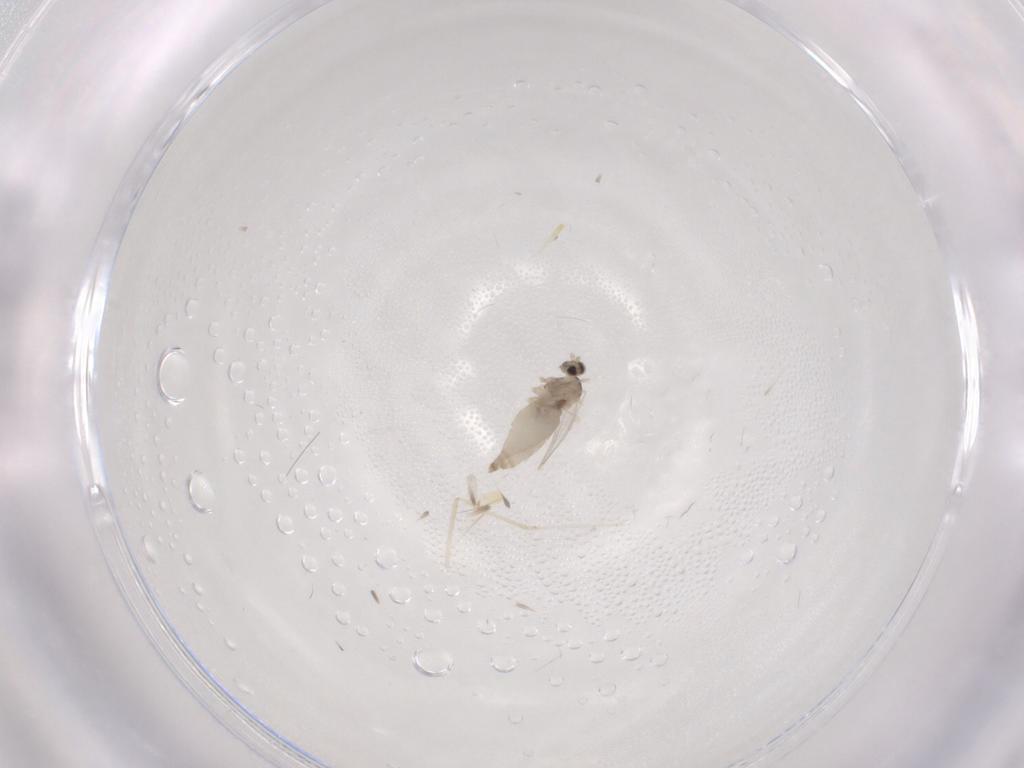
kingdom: Animalia
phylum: Arthropoda
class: Insecta
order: Diptera
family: Cecidomyiidae
